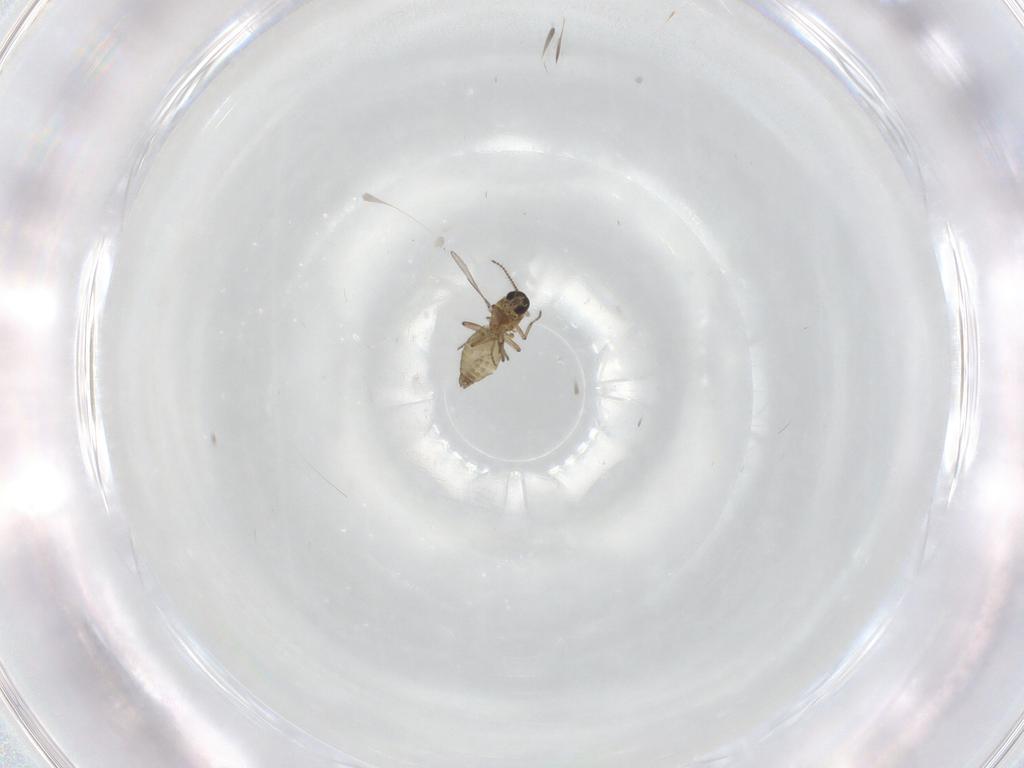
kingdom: Animalia
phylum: Arthropoda
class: Insecta
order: Diptera
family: Ceratopogonidae
